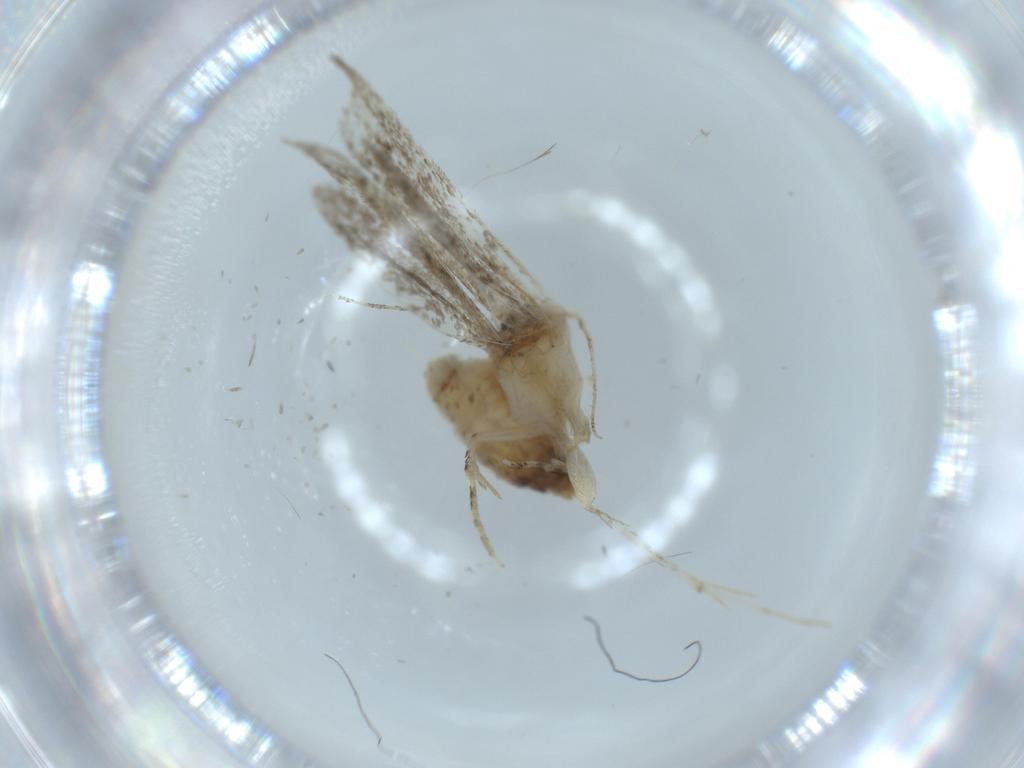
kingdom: Animalia
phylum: Arthropoda
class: Insecta
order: Lepidoptera
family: Tineidae
